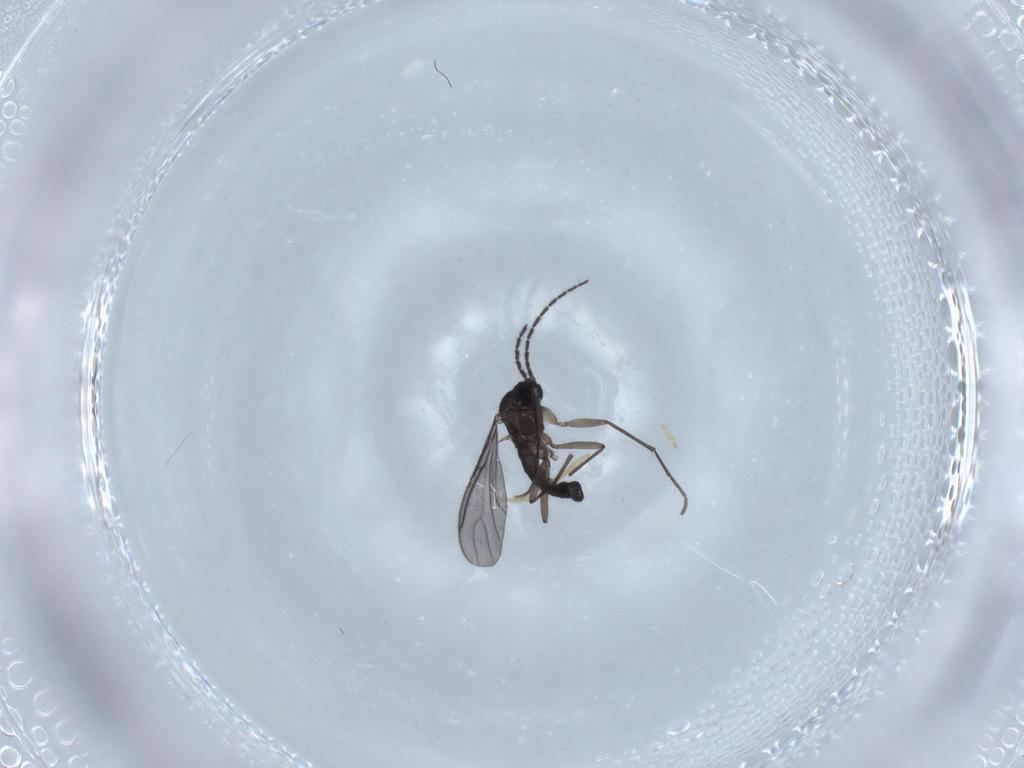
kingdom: Animalia
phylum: Arthropoda
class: Insecta
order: Diptera
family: Sciaridae
